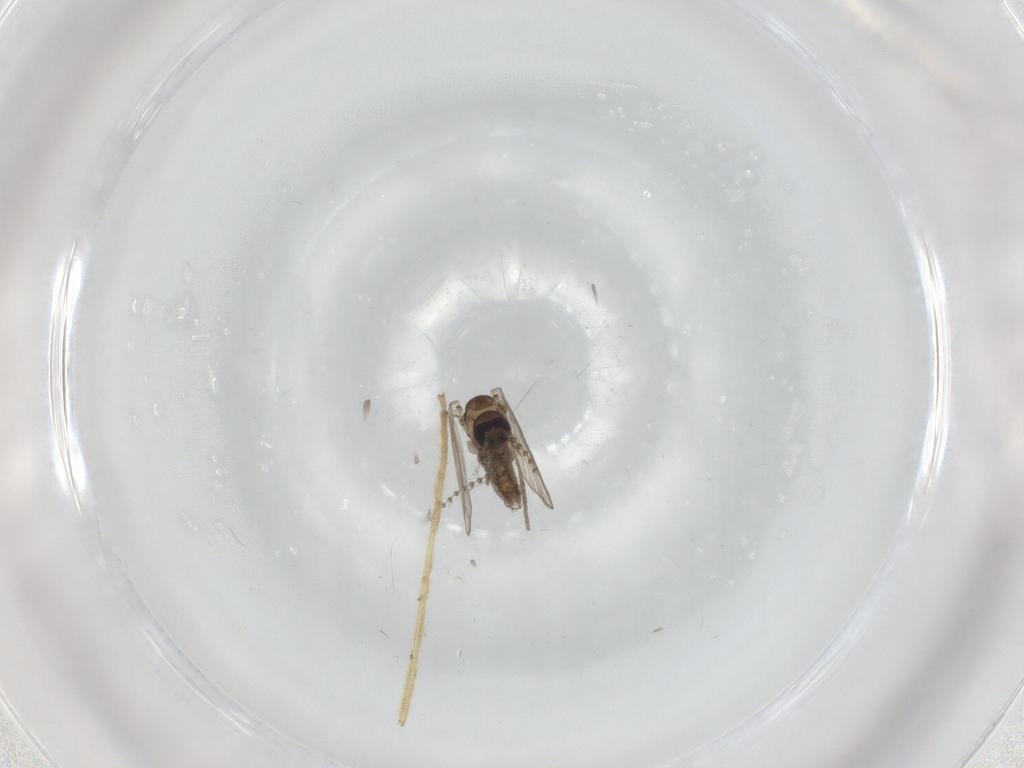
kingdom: Animalia
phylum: Arthropoda
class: Insecta
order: Diptera
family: Psychodidae
